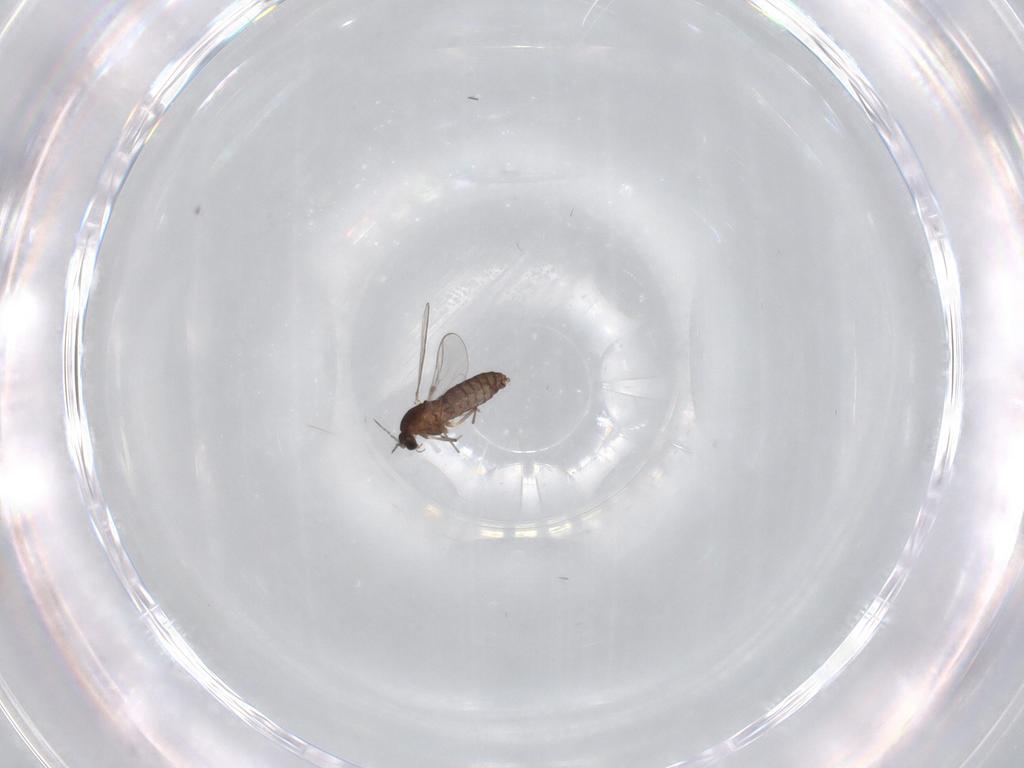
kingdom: Animalia
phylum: Arthropoda
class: Insecta
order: Diptera
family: Chironomidae
